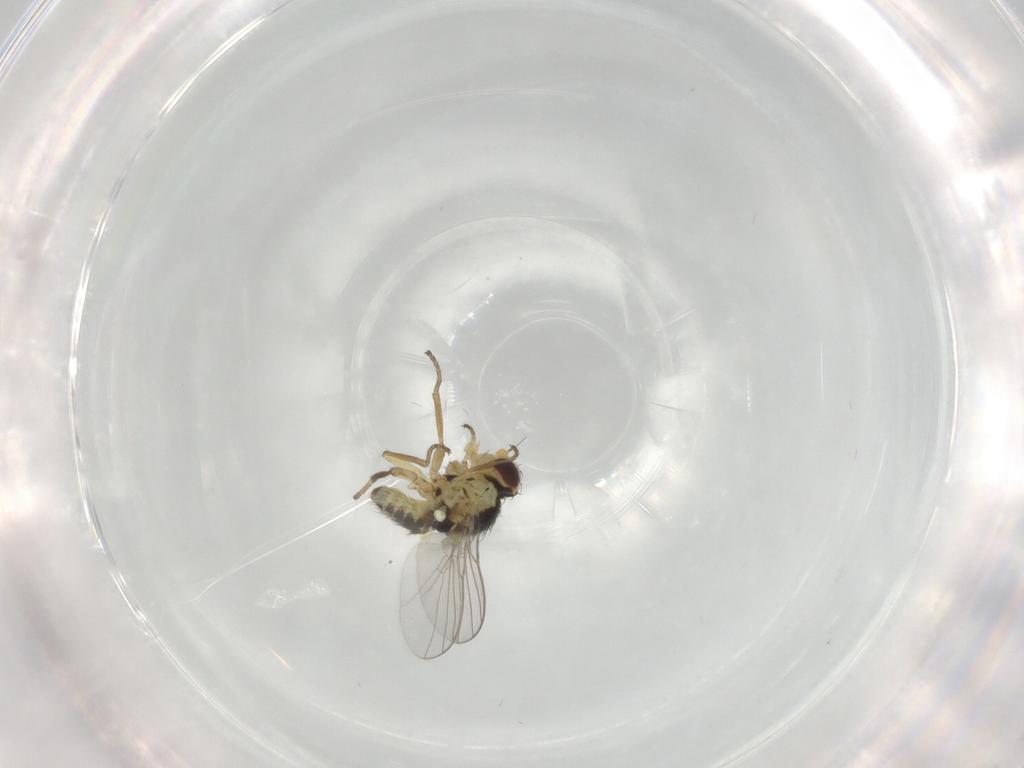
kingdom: Animalia
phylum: Arthropoda
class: Insecta
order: Diptera
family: Agromyzidae
